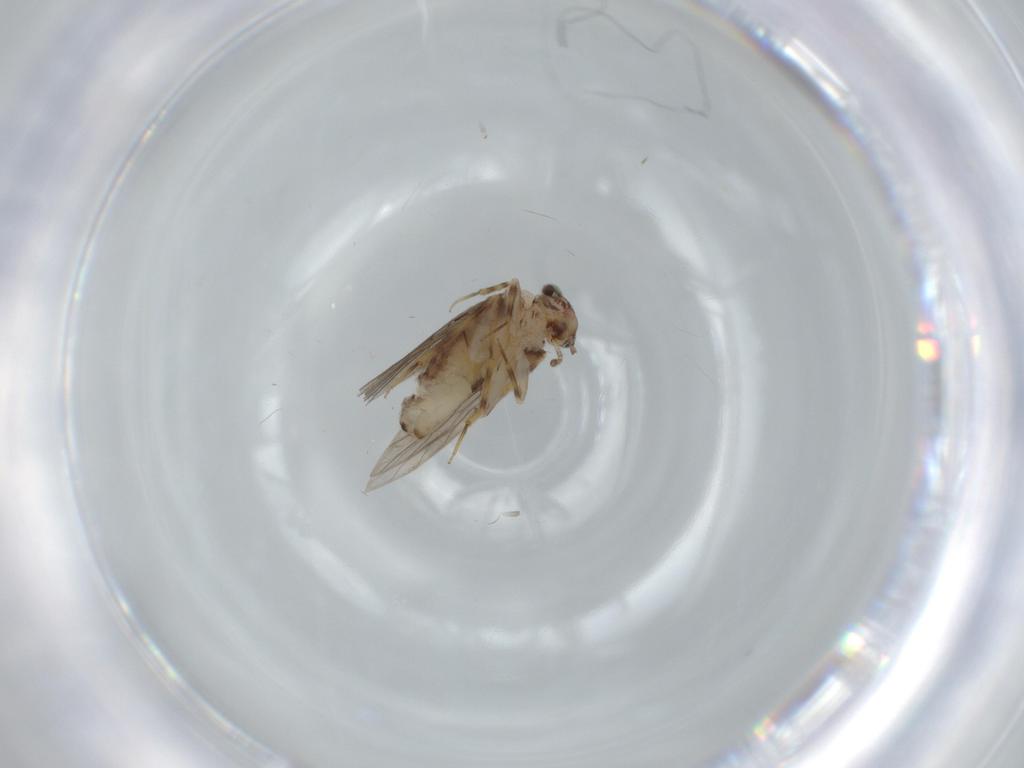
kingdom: Animalia
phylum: Arthropoda
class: Insecta
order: Psocodea
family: Lepidopsocidae
